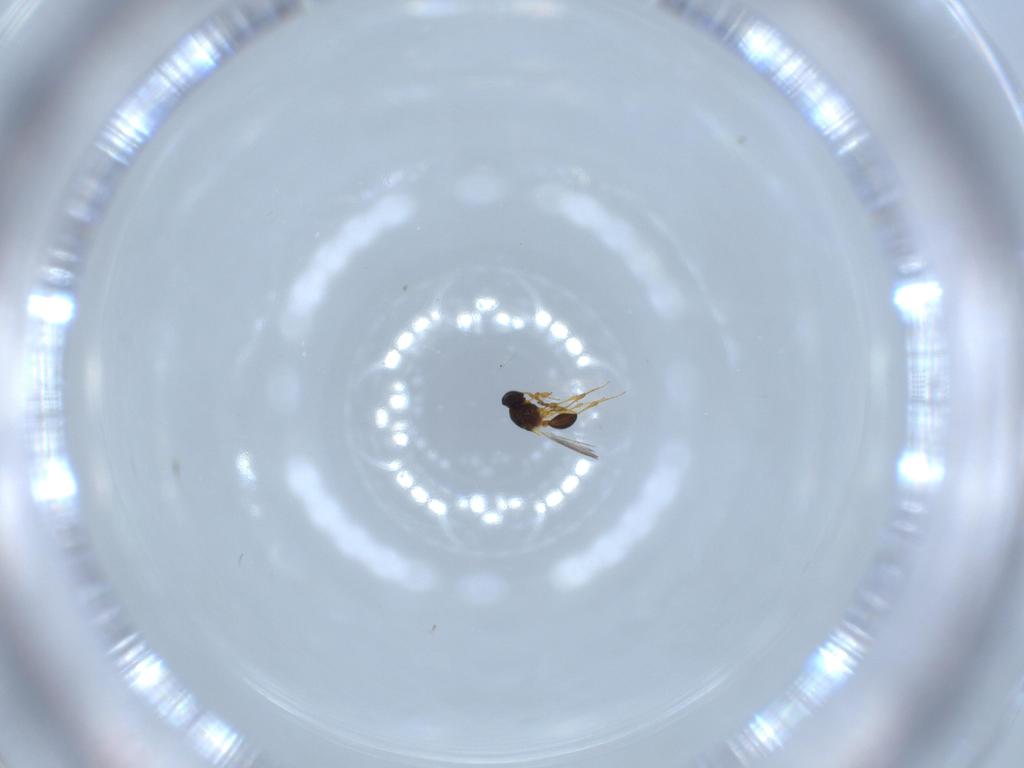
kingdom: Animalia
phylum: Arthropoda
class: Insecta
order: Hymenoptera
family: Platygastridae
